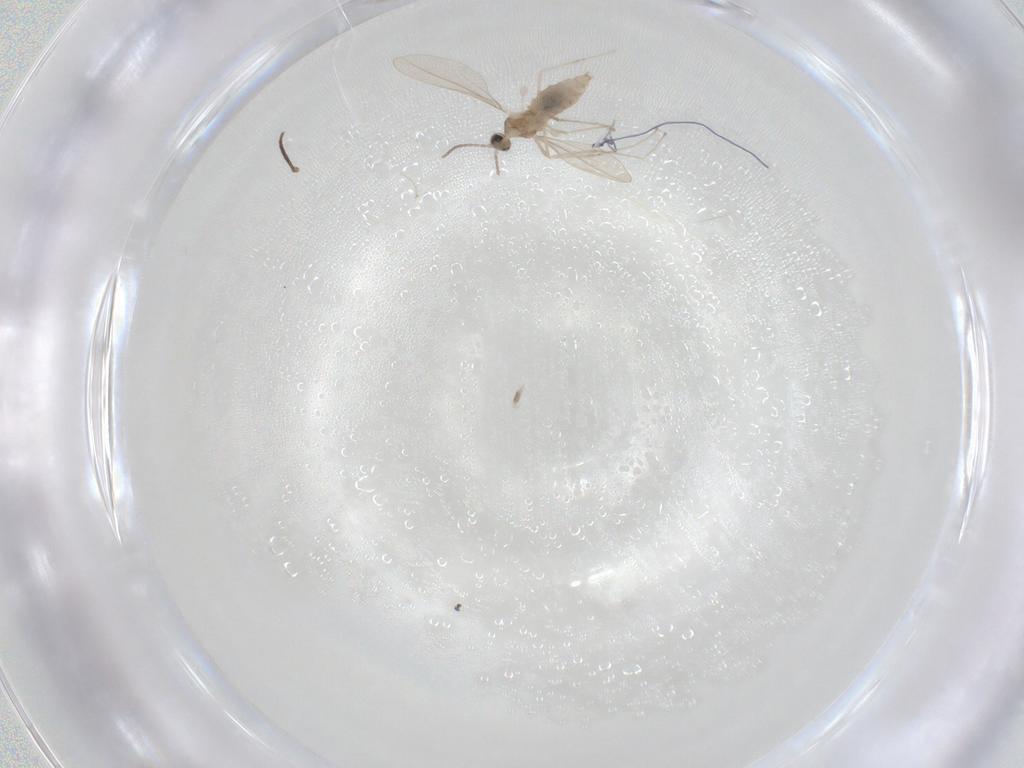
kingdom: Animalia
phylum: Arthropoda
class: Insecta
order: Diptera
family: Cecidomyiidae
